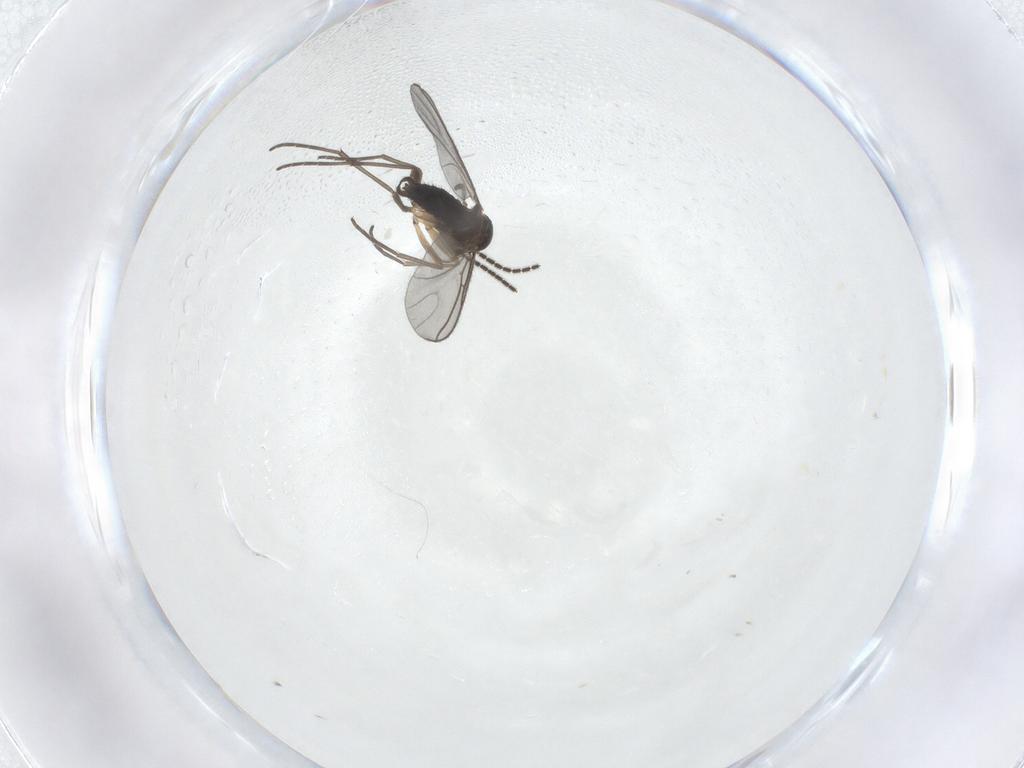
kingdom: Animalia
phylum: Arthropoda
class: Insecta
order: Diptera
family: Sciaridae
